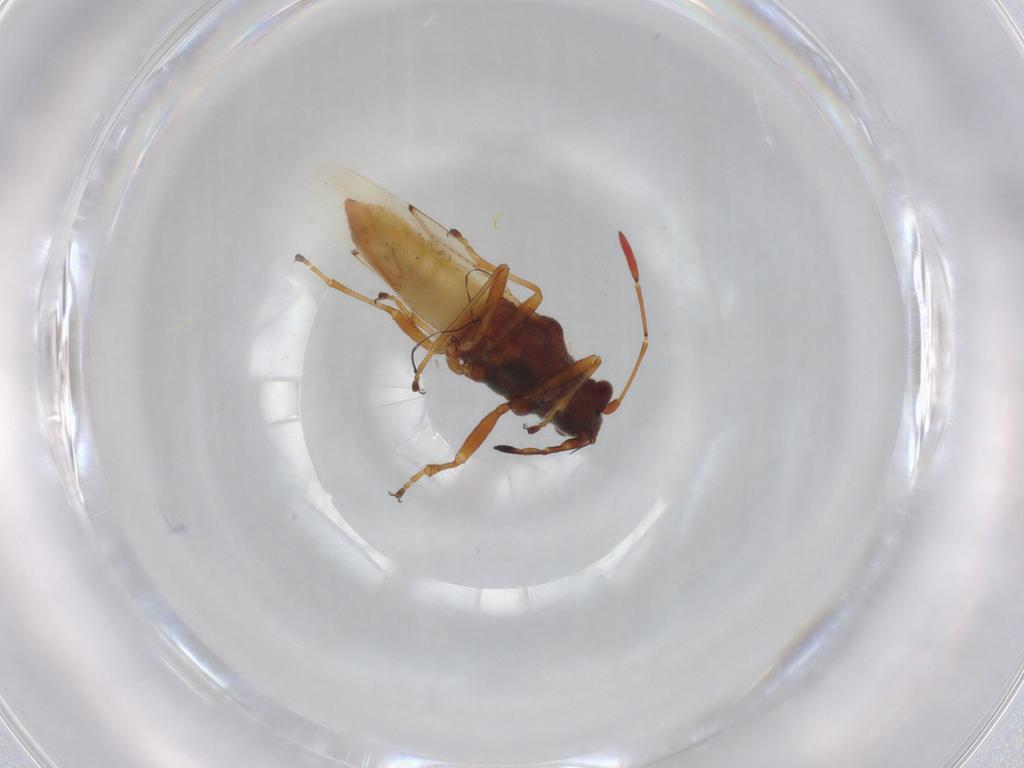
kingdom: Animalia
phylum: Arthropoda
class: Insecta
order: Hemiptera
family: Ninidae
